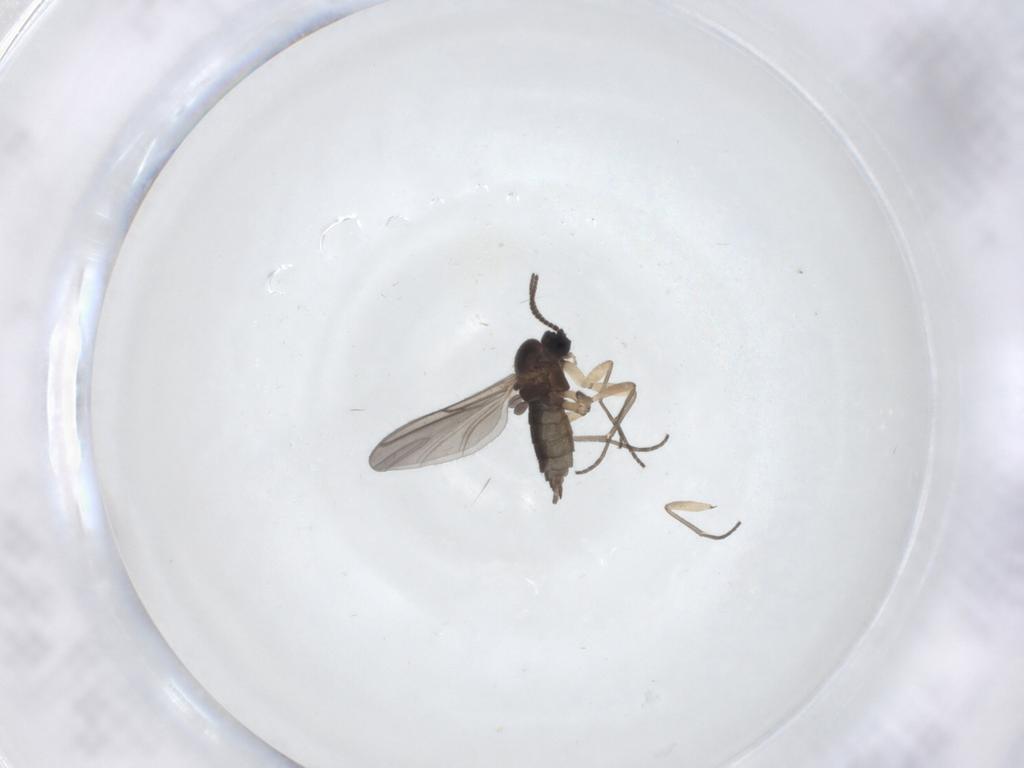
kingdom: Animalia
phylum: Arthropoda
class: Insecta
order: Diptera
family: Sciaridae
